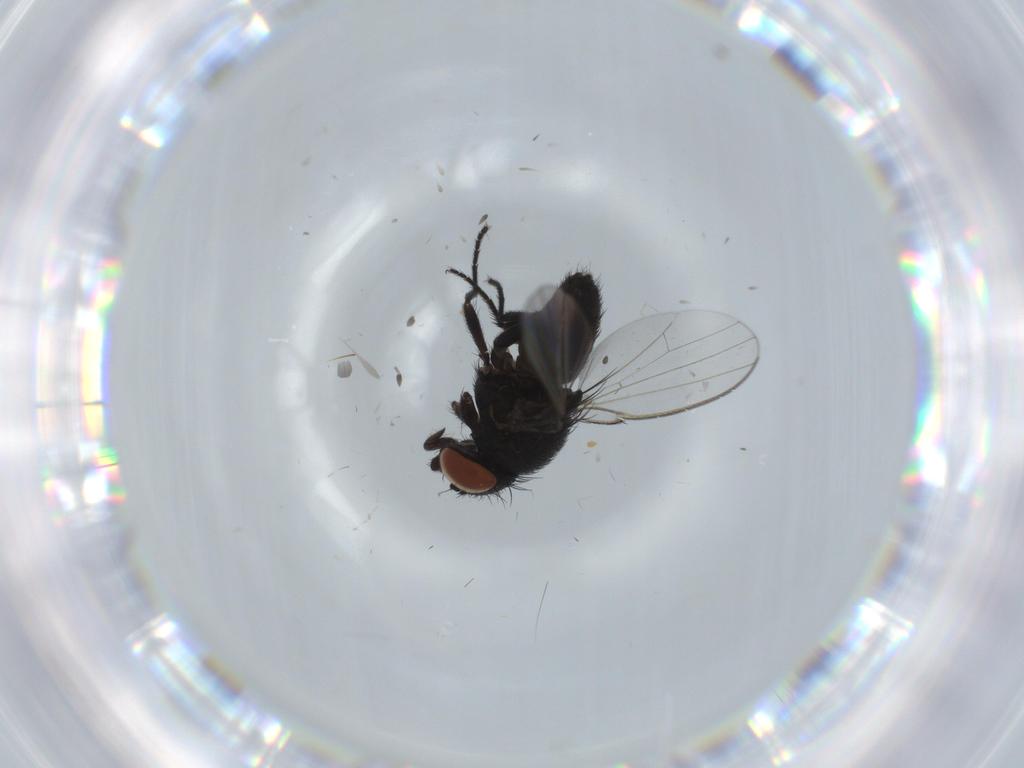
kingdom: Animalia
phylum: Arthropoda
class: Insecta
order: Diptera
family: Milichiidae
